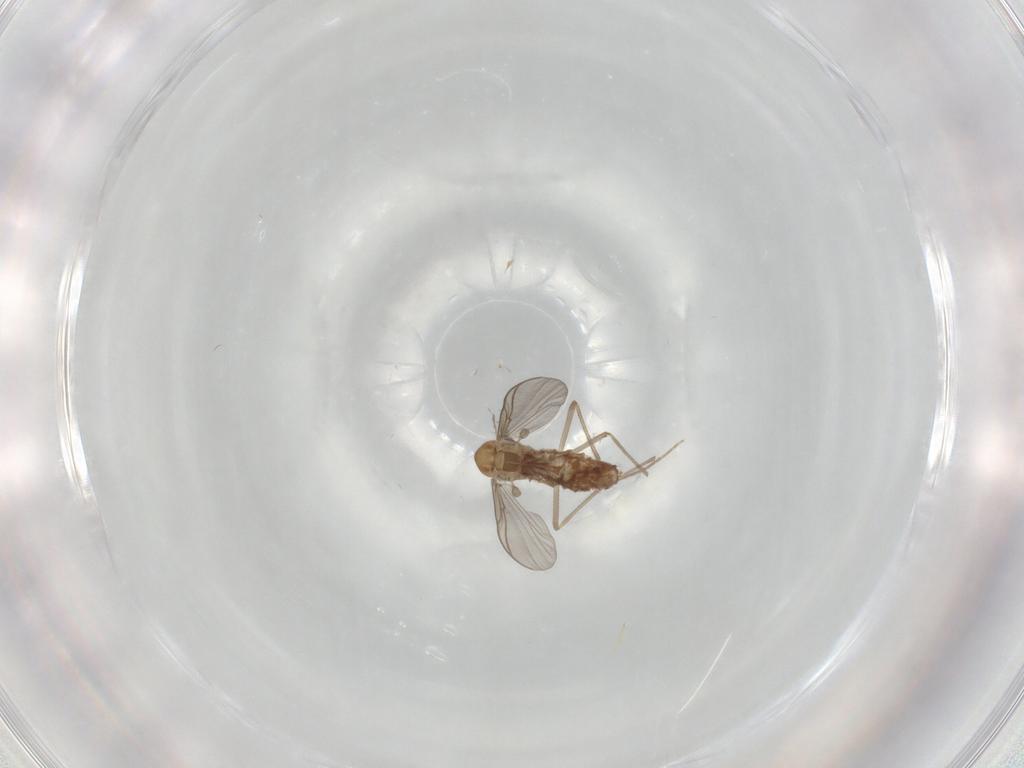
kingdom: Animalia
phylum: Arthropoda
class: Insecta
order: Diptera
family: Chironomidae
